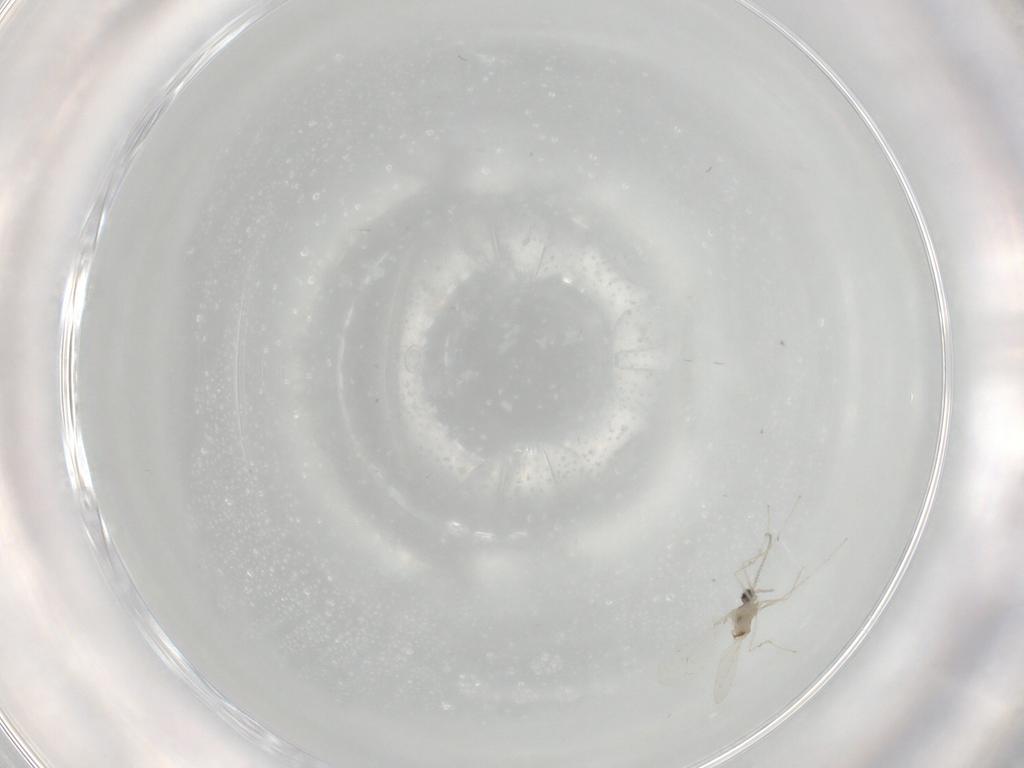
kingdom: Animalia
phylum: Arthropoda
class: Insecta
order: Diptera
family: Cecidomyiidae
